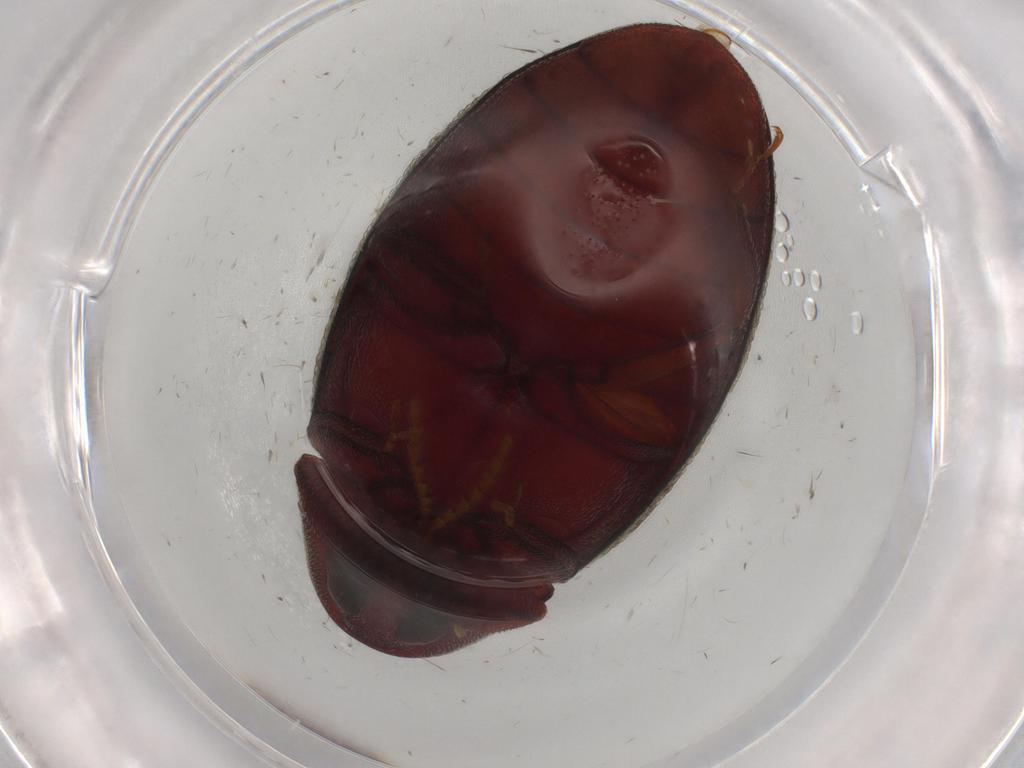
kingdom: Animalia
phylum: Arthropoda
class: Insecta
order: Coleoptera
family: Chelonariidae
